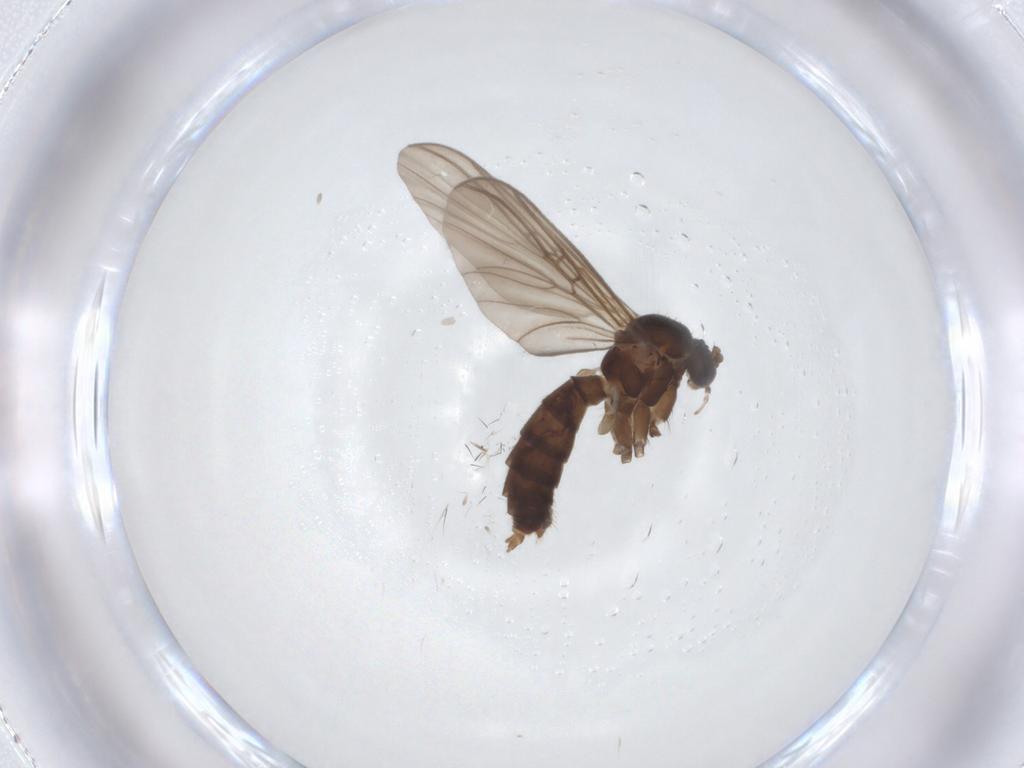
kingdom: Animalia
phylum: Arthropoda
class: Insecta
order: Diptera
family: Mycetophilidae
